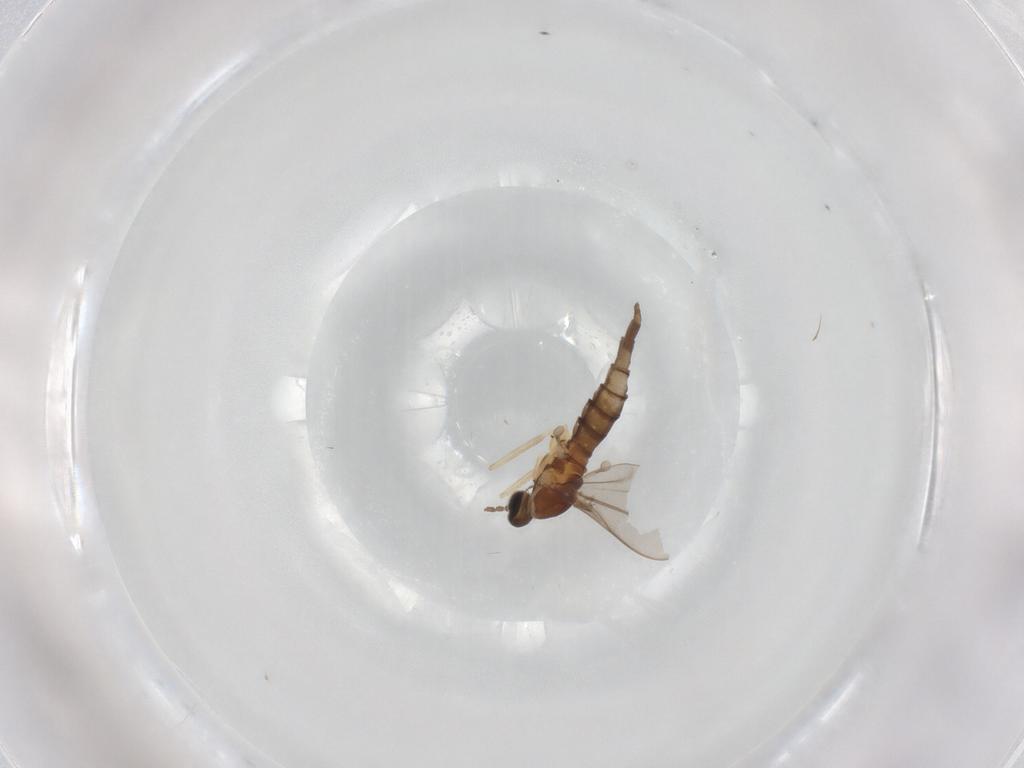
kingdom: Animalia
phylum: Arthropoda
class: Insecta
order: Diptera
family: Cecidomyiidae
